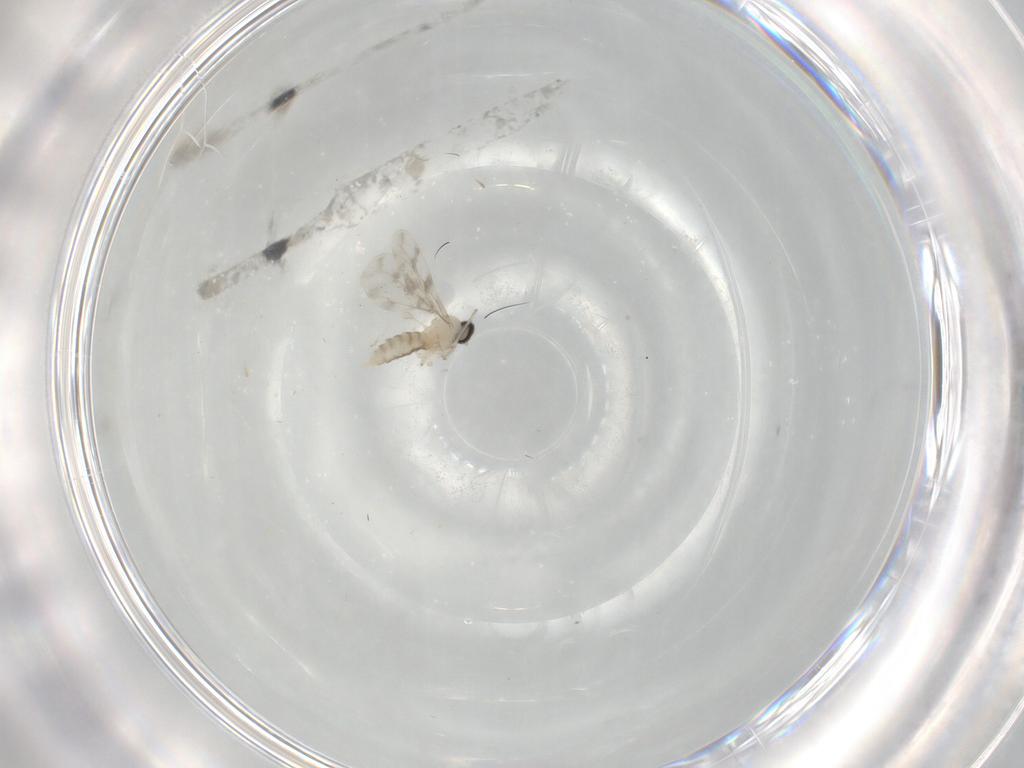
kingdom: Animalia
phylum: Arthropoda
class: Insecta
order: Diptera
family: Cecidomyiidae
